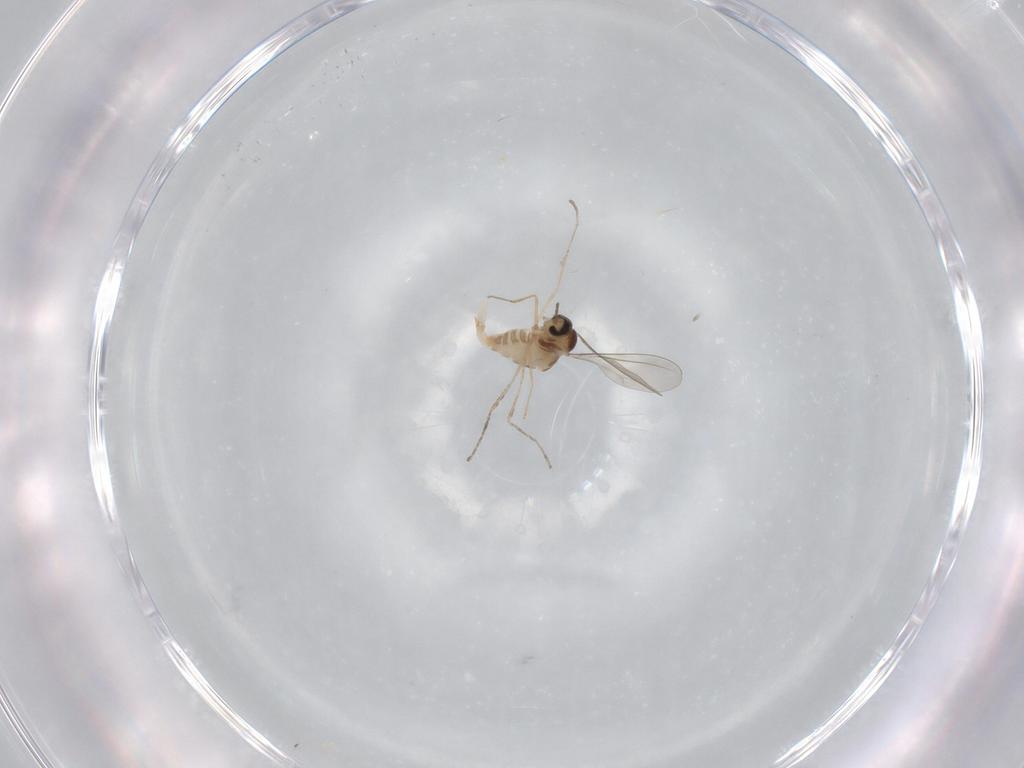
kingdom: Animalia
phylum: Arthropoda
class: Insecta
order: Diptera
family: Cecidomyiidae
